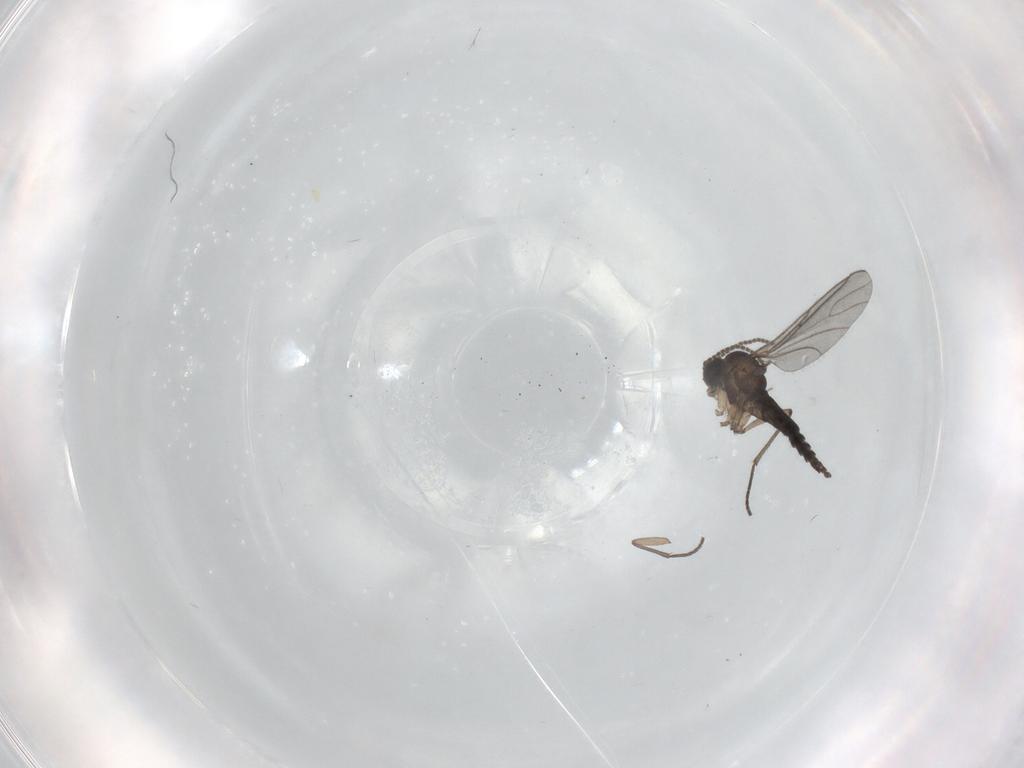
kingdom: Animalia
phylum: Arthropoda
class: Insecta
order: Diptera
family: Sciaridae
